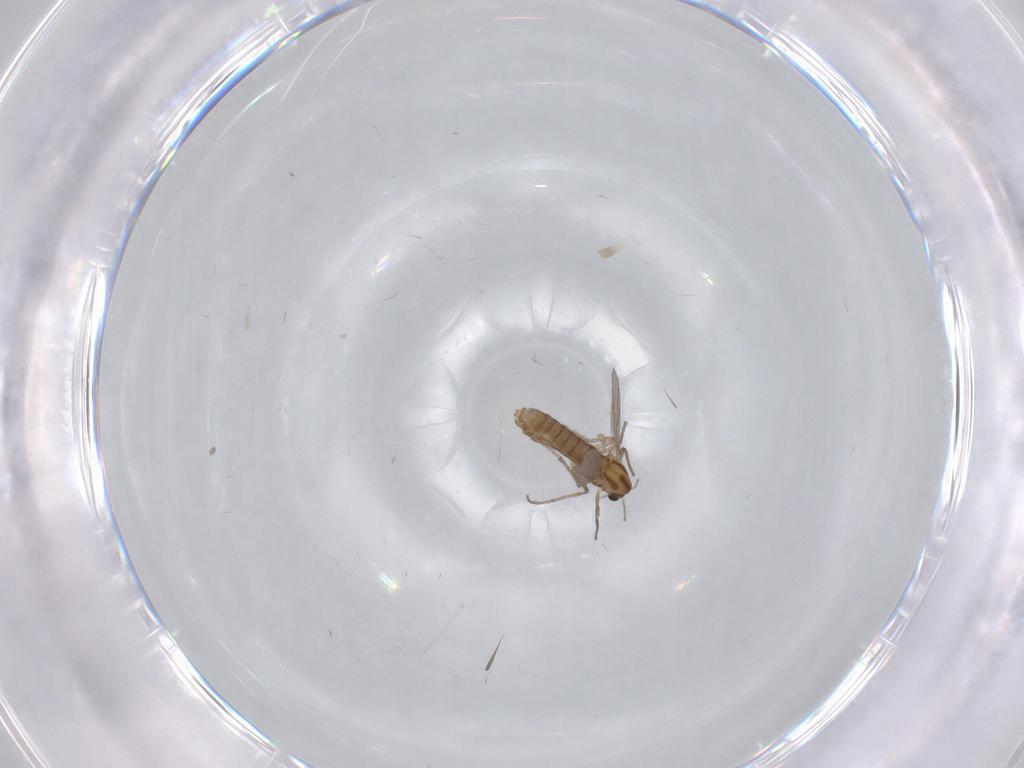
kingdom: Animalia
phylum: Arthropoda
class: Insecta
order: Diptera
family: Chironomidae
